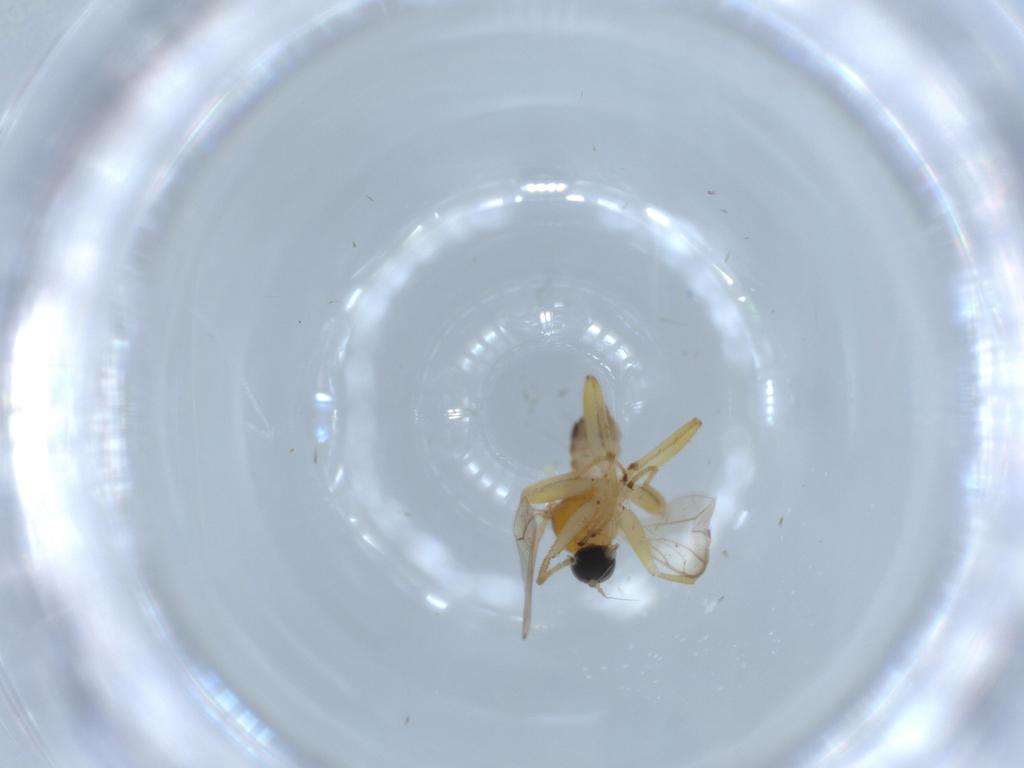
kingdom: Animalia
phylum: Arthropoda
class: Insecta
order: Diptera
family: Hybotidae
